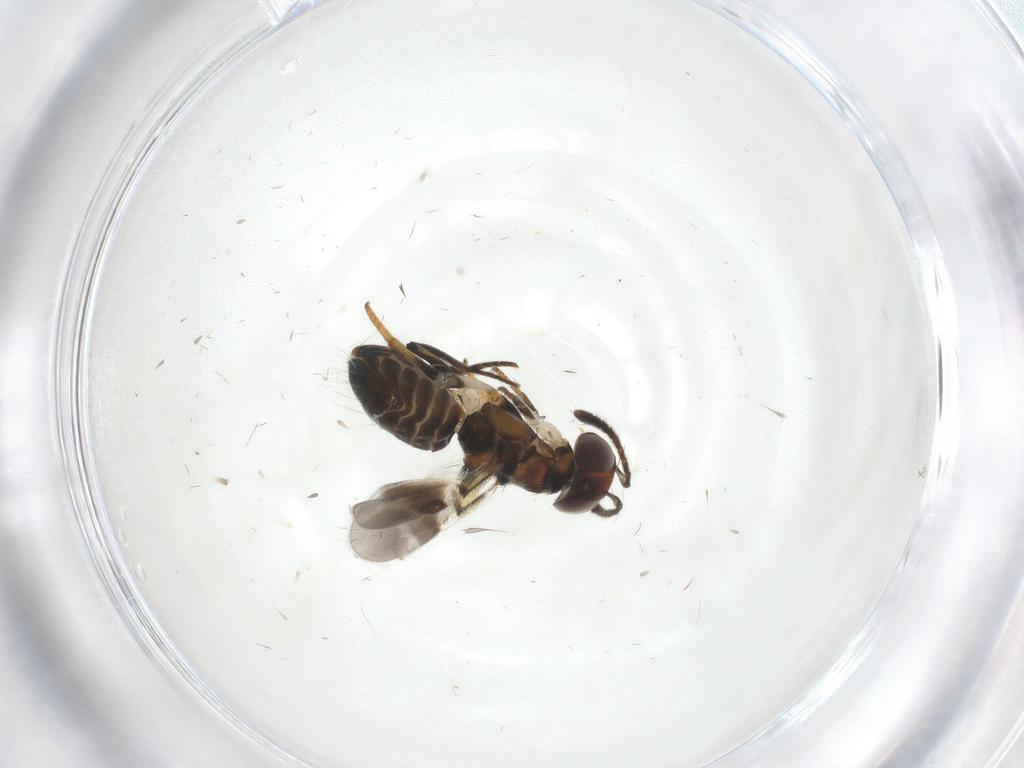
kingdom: Animalia
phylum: Arthropoda
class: Insecta
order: Hymenoptera
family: Formicidae
